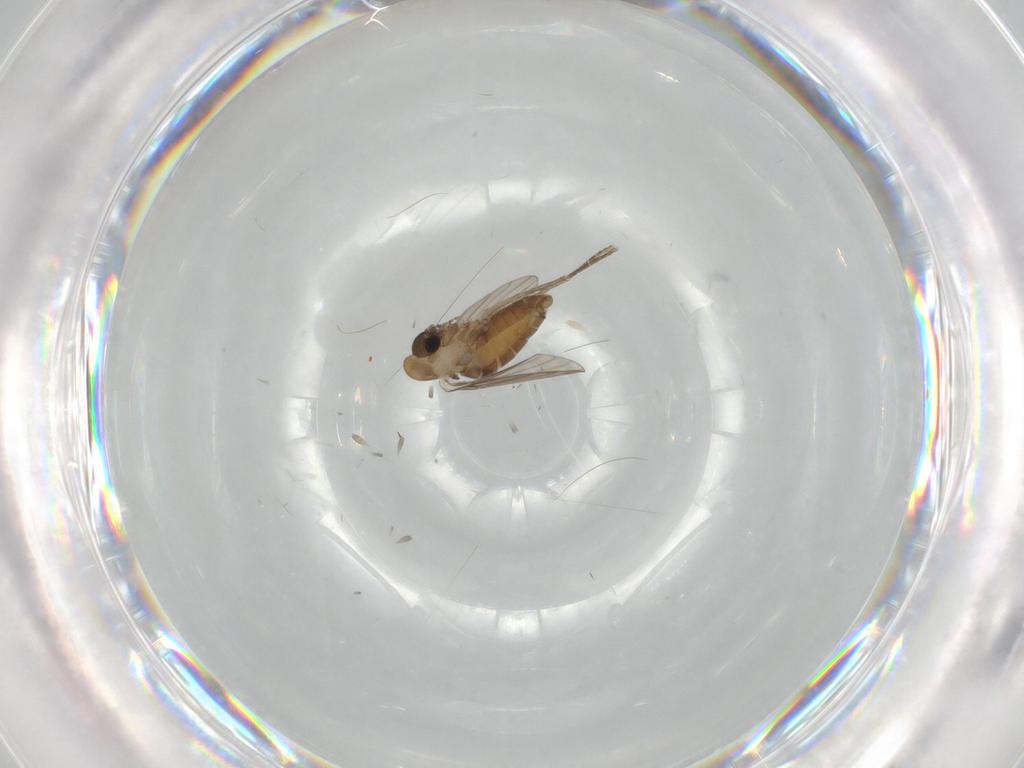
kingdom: Animalia
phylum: Arthropoda
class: Insecta
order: Diptera
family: Psychodidae
